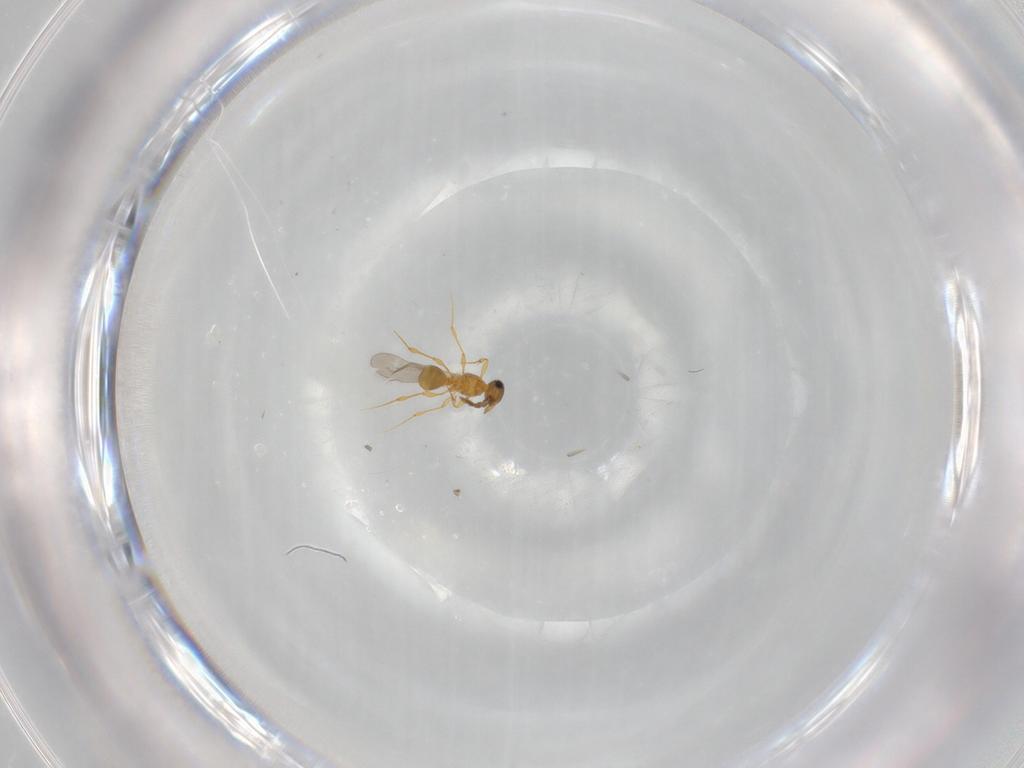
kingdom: Animalia
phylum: Arthropoda
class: Insecta
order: Hymenoptera
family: Platygastridae
